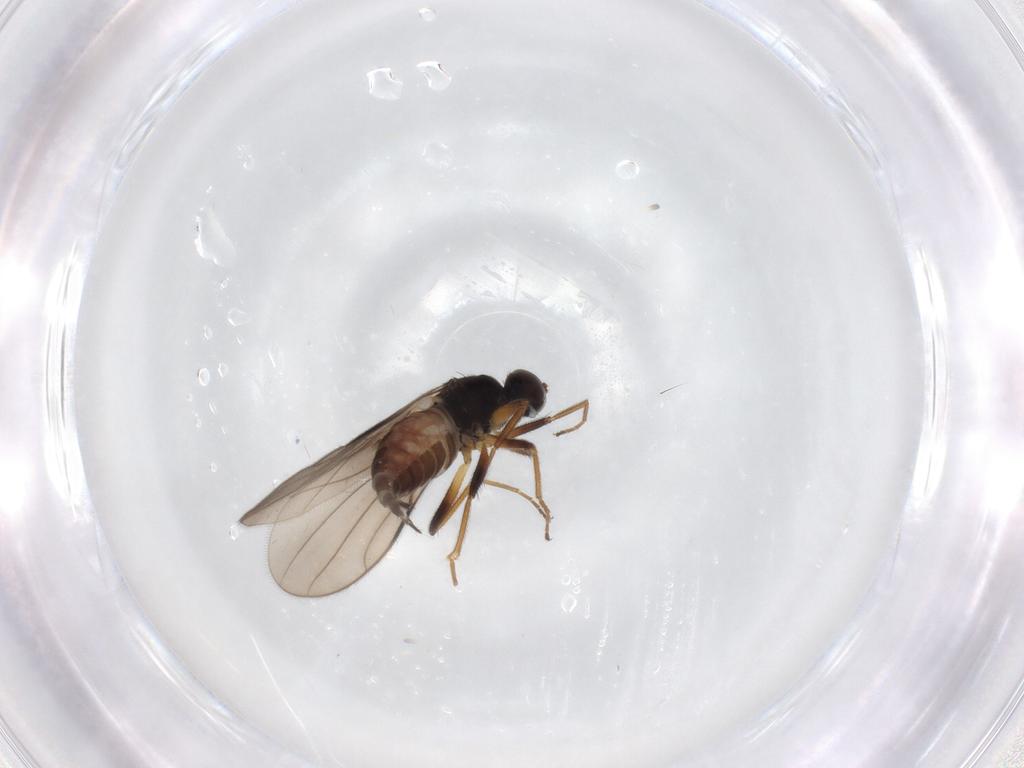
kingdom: Animalia
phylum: Arthropoda
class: Insecta
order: Diptera
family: Hybotidae
